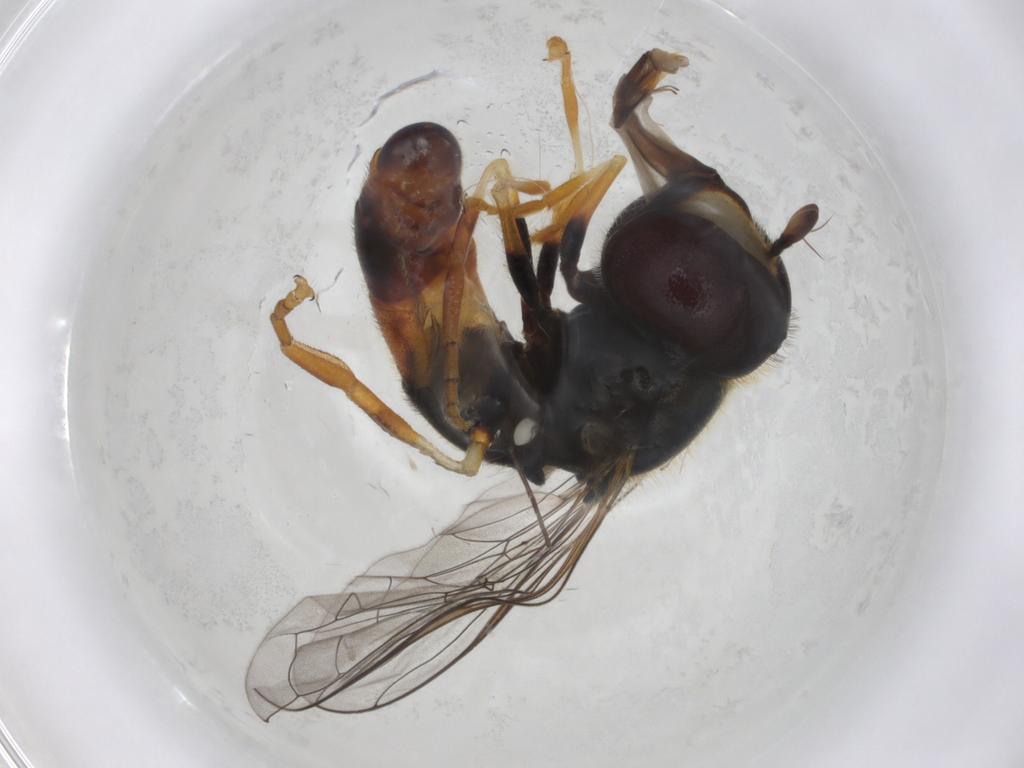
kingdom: Animalia
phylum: Arthropoda
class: Insecta
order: Diptera
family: Syrphidae
